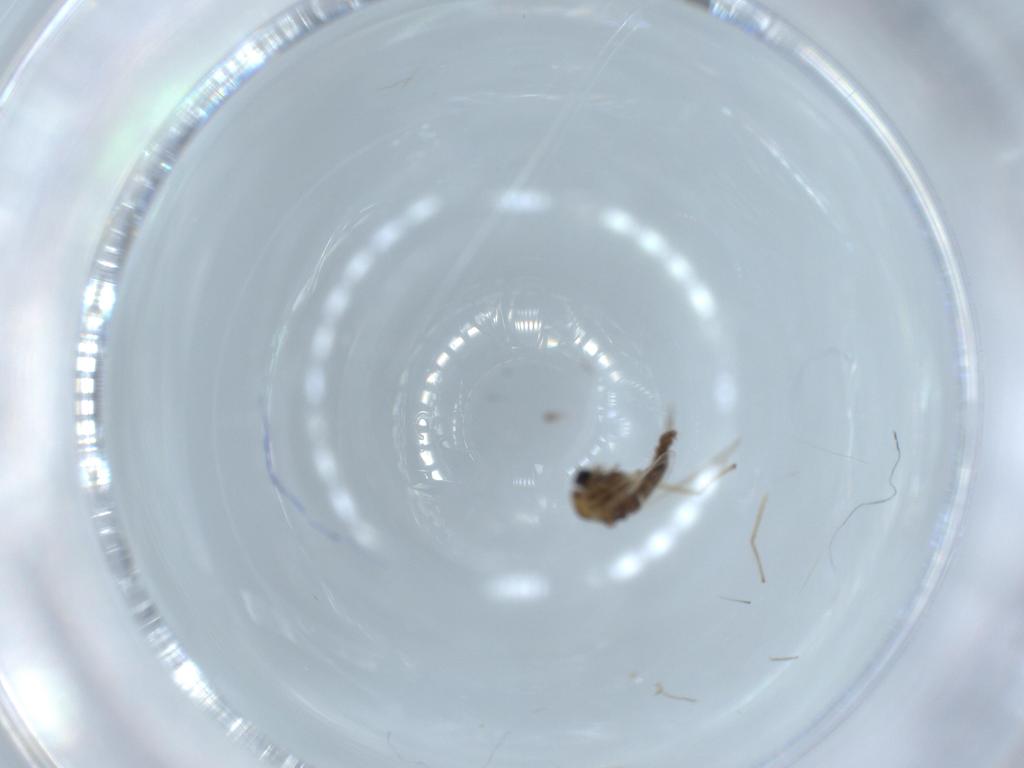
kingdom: Animalia
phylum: Arthropoda
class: Insecta
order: Diptera
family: Chironomidae
